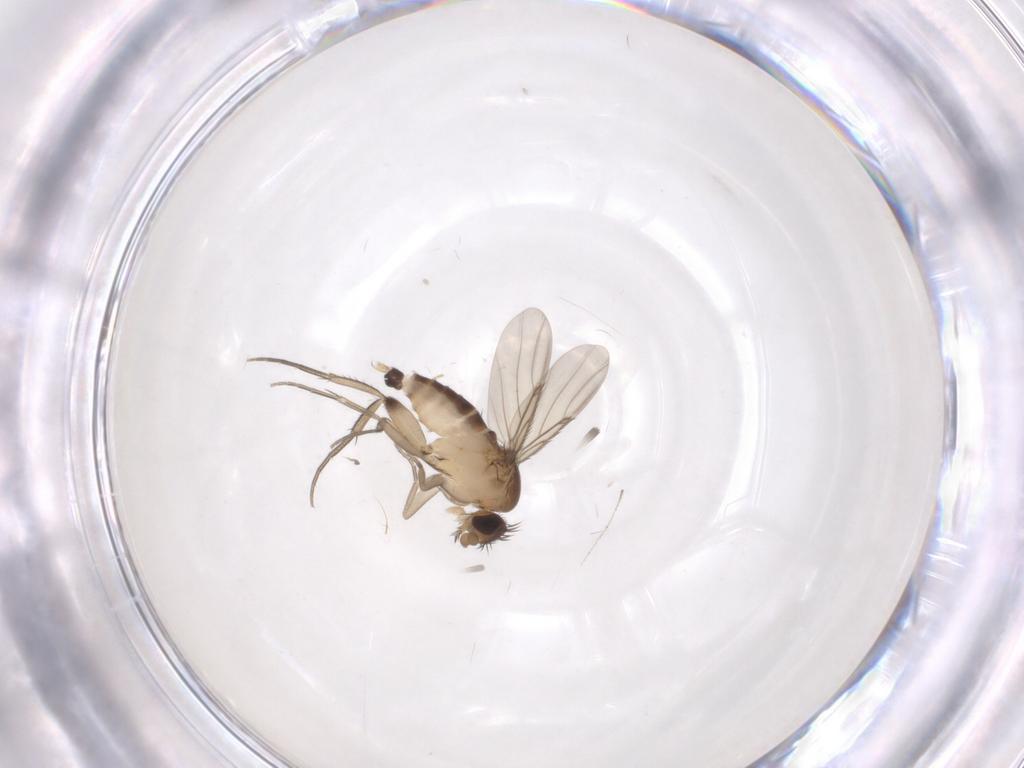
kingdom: Animalia
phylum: Arthropoda
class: Insecta
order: Diptera
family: Phoridae
